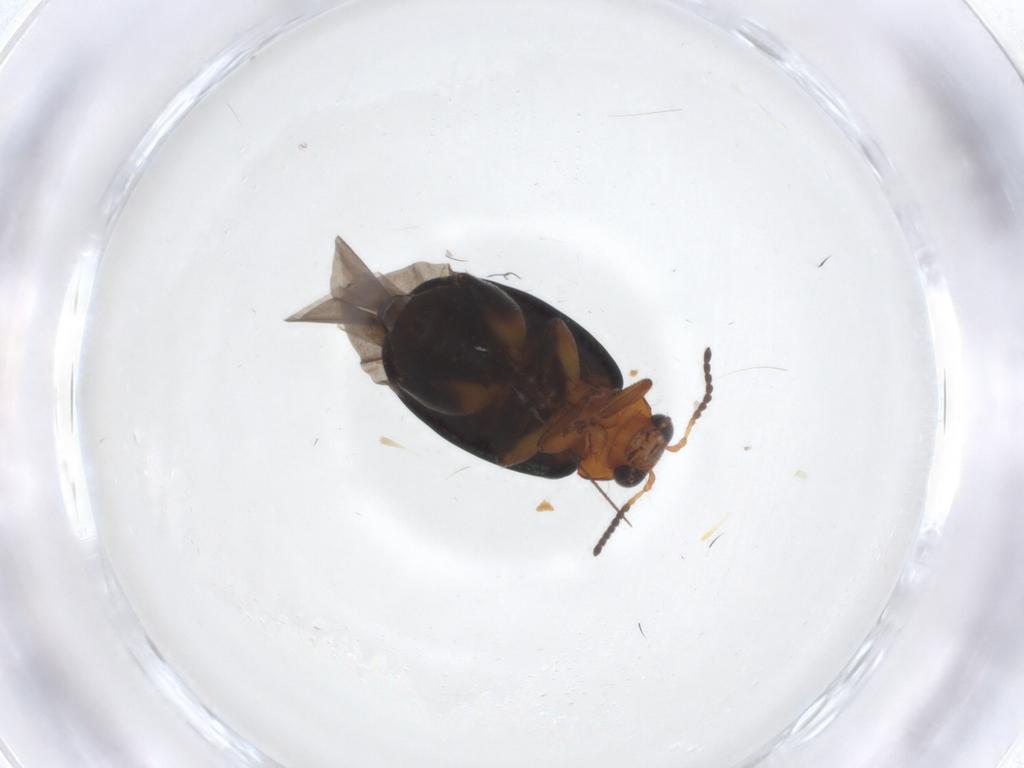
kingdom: Animalia
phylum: Arthropoda
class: Insecta
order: Coleoptera
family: Chrysomelidae
